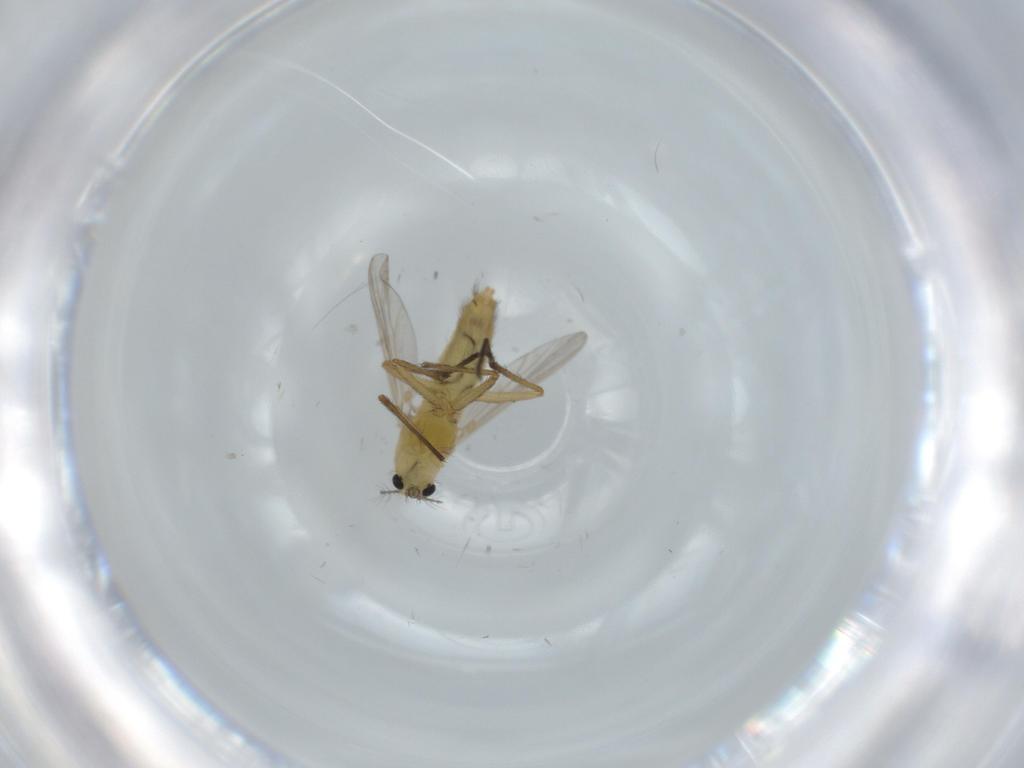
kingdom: Animalia
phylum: Arthropoda
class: Insecta
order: Diptera
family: Chironomidae
